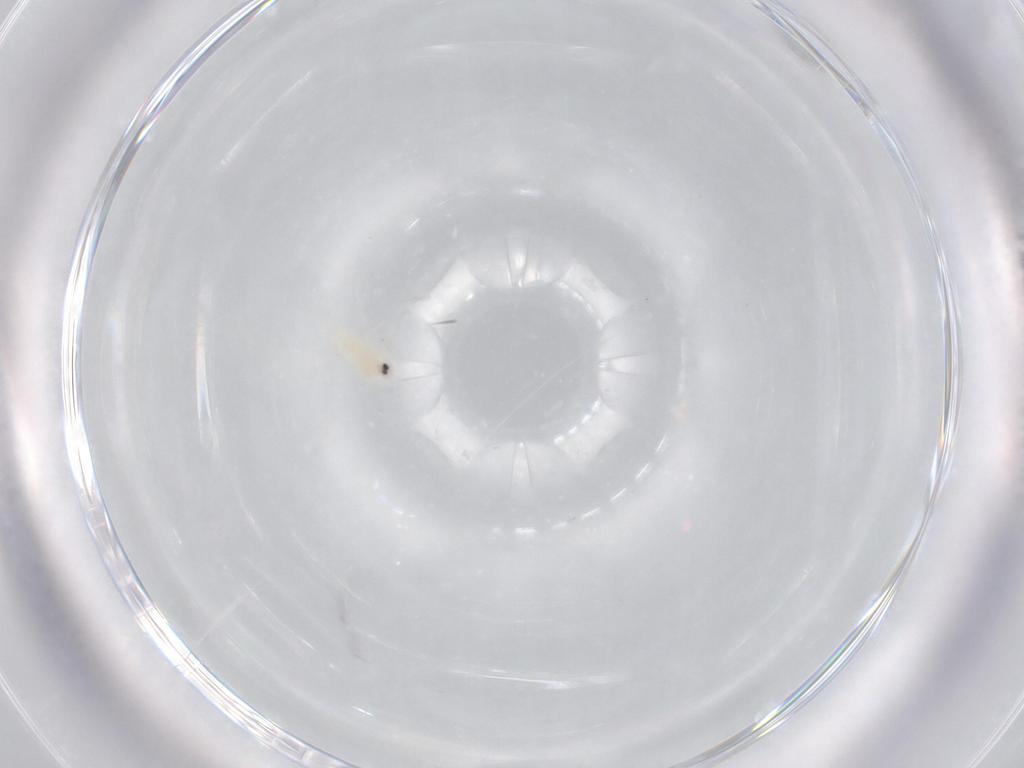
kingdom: Animalia
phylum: Arthropoda
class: Insecta
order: Hemiptera
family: Aleyrodidae
